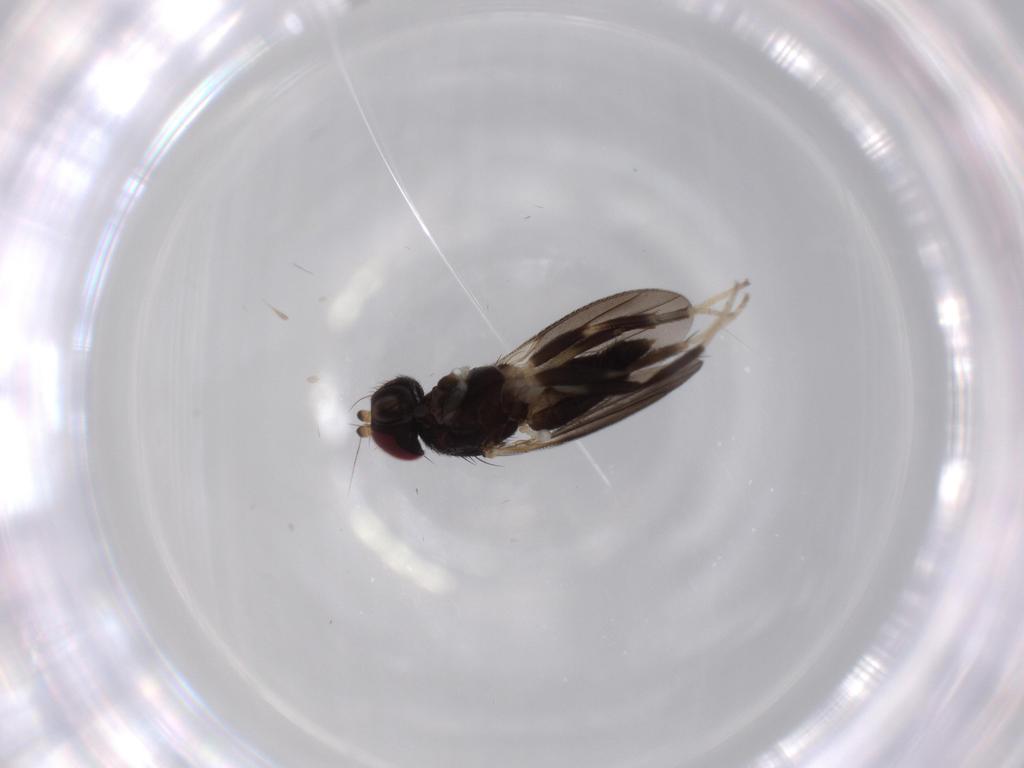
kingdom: Animalia
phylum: Arthropoda
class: Insecta
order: Diptera
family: Clusiidae
